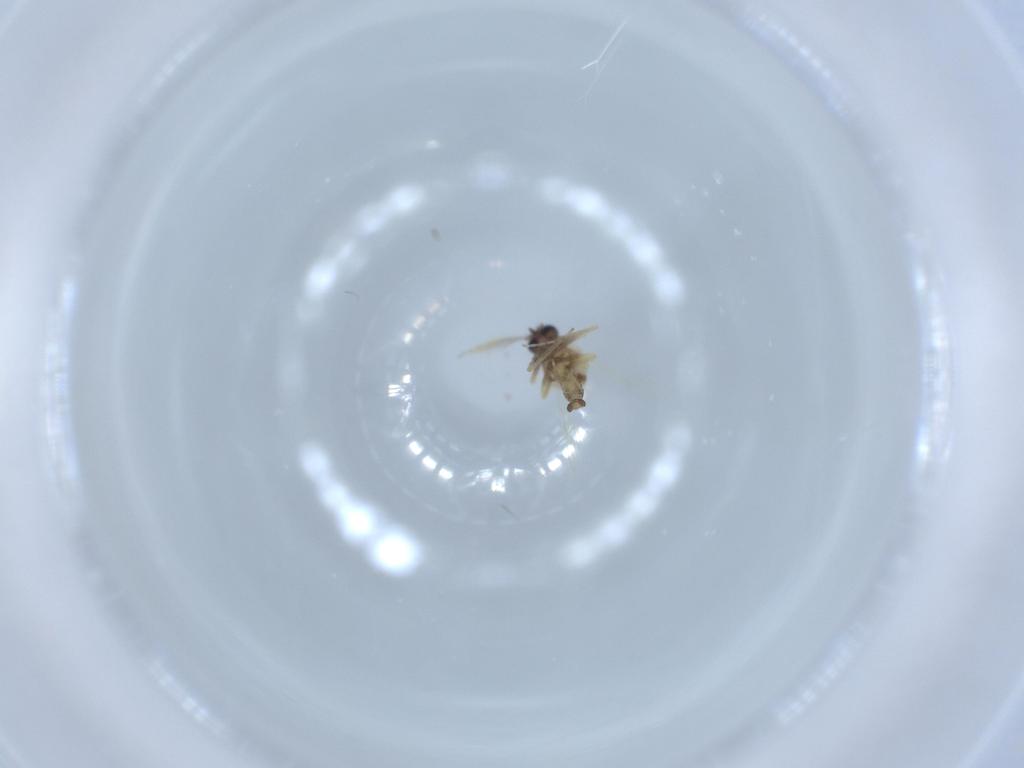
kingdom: Animalia
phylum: Arthropoda
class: Insecta
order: Diptera
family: Ceratopogonidae
